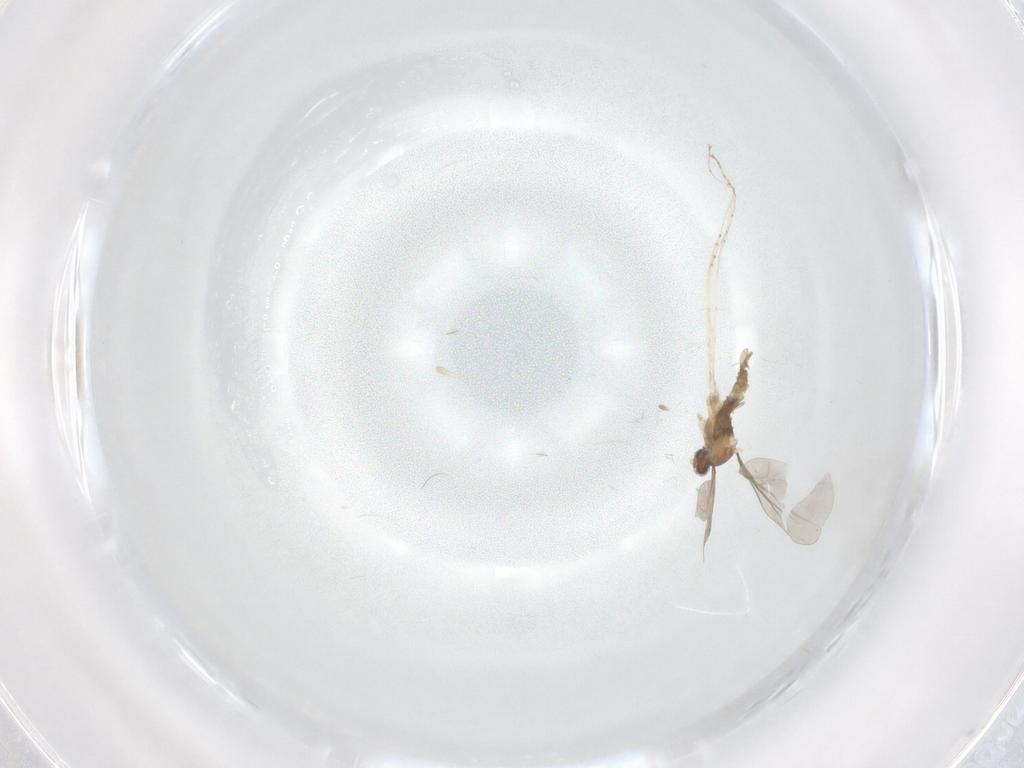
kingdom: Animalia
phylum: Arthropoda
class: Insecta
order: Diptera
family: Cecidomyiidae
